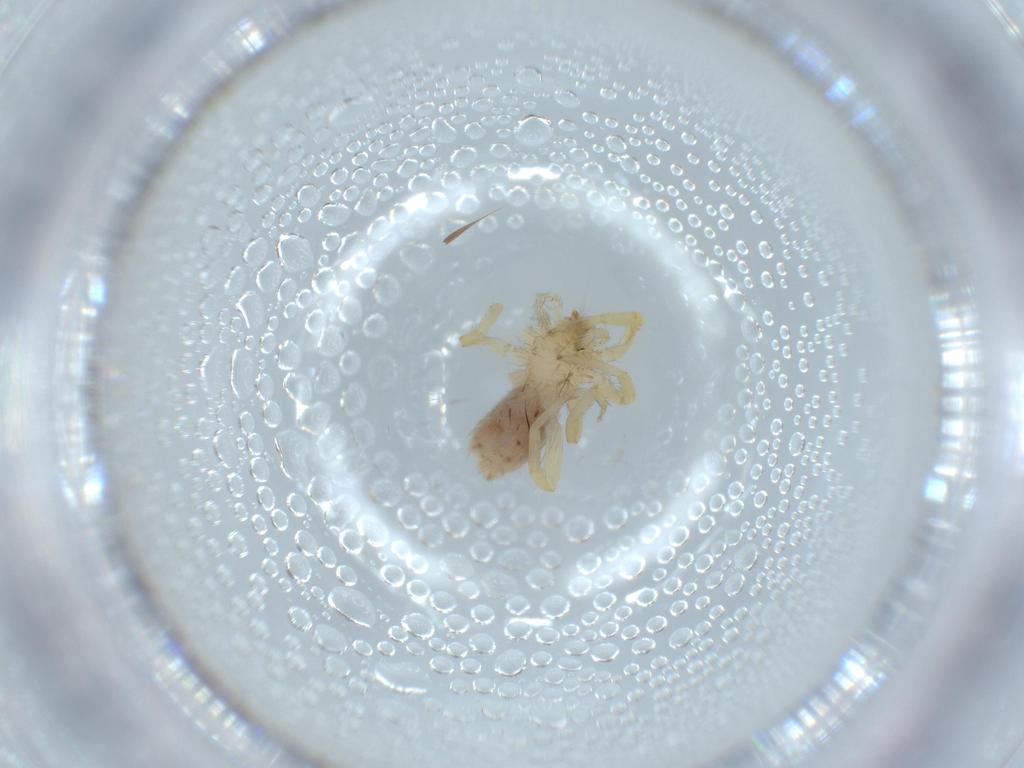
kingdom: Animalia
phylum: Arthropoda
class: Arachnida
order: Araneae
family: Oonopidae
